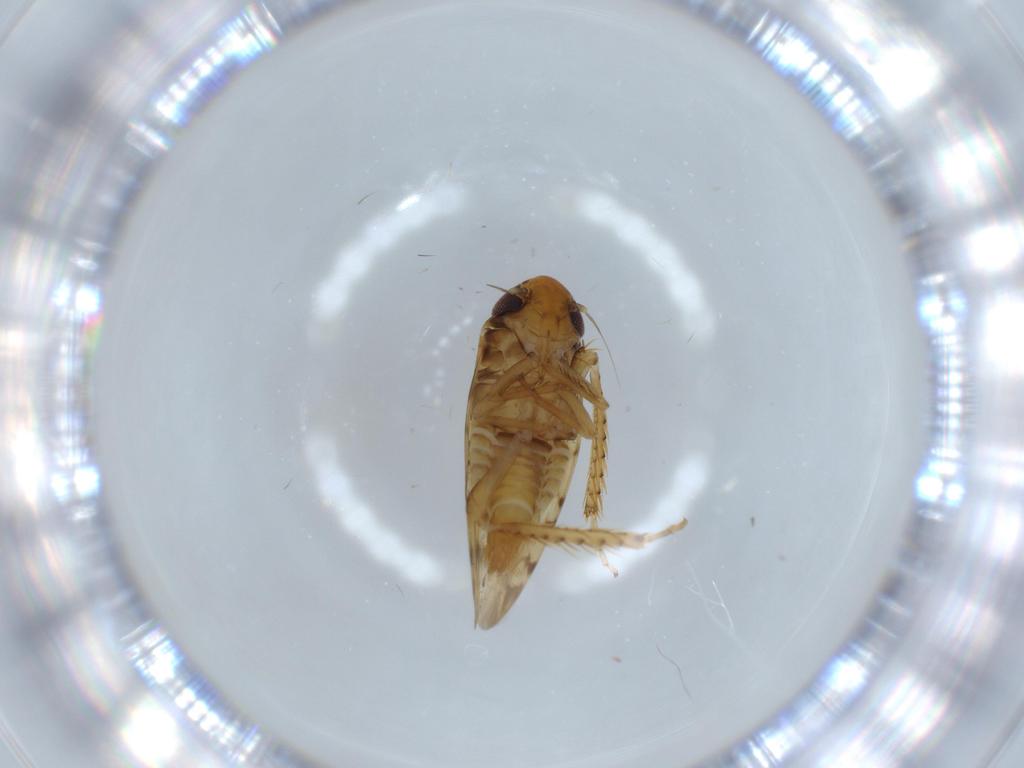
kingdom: Animalia
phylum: Arthropoda
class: Insecta
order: Hemiptera
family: Cicadellidae
